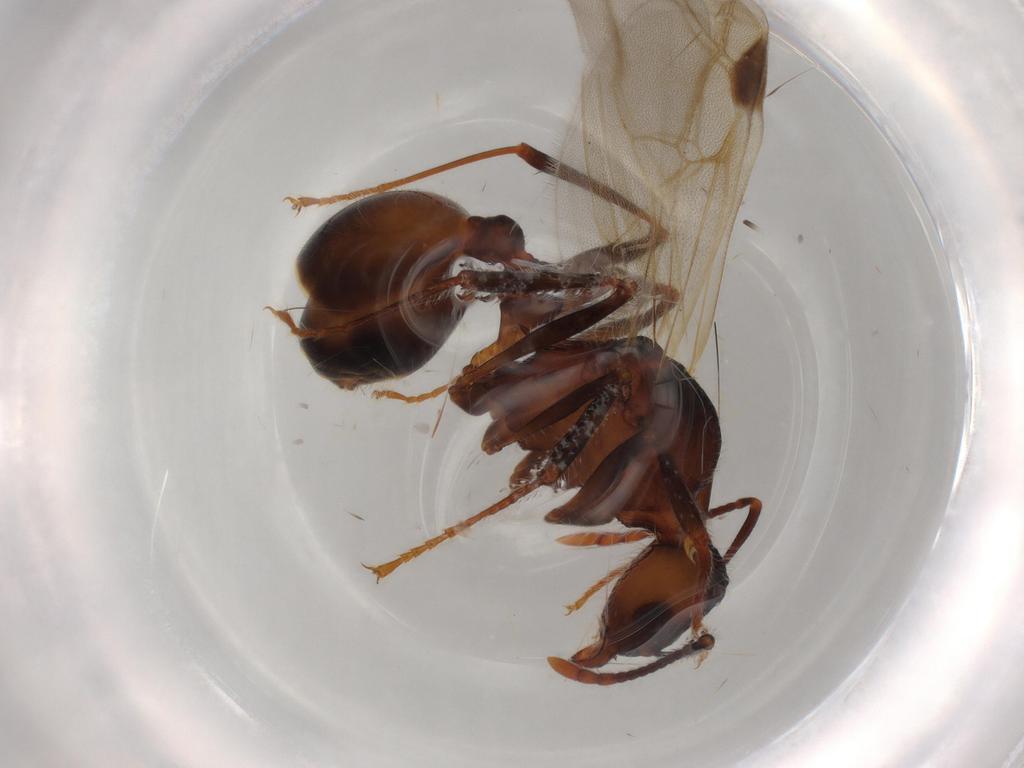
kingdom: Animalia
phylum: Arthropoda
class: Insecta
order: Hymenoptera
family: Formicidae
